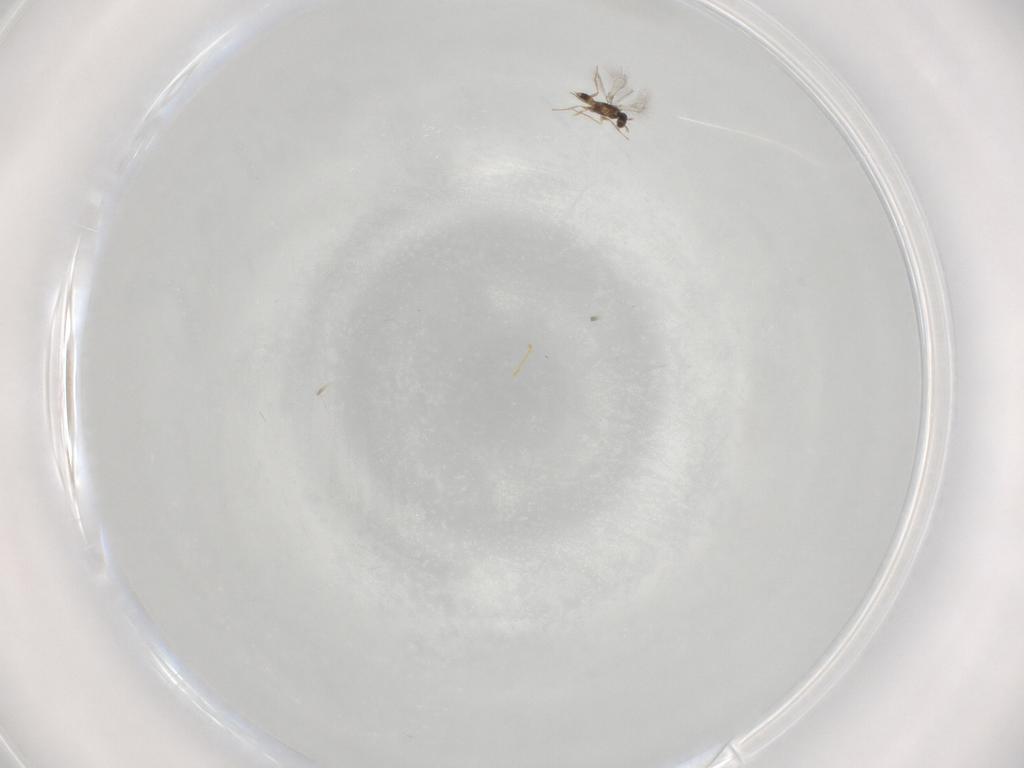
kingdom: Animalia
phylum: Arthropoda
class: Insecta
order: Hymenoptera
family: Mymaridae
